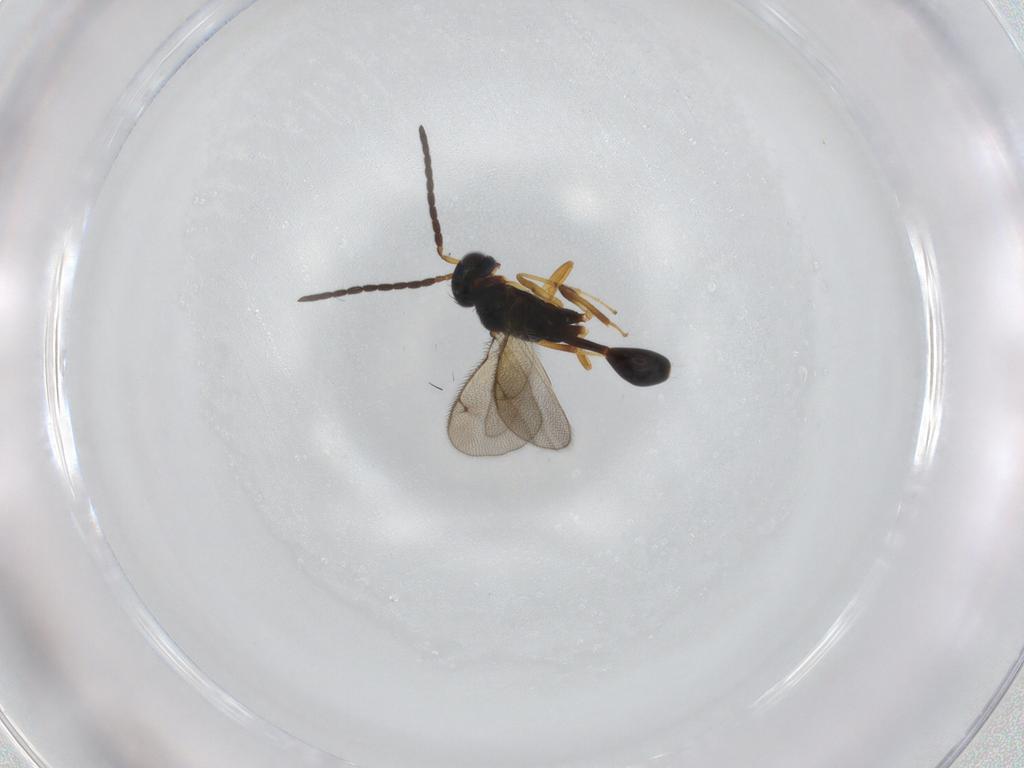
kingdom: Animalia
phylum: Arthropoda
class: Insecta
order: Hymenoptera
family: Diparidae
